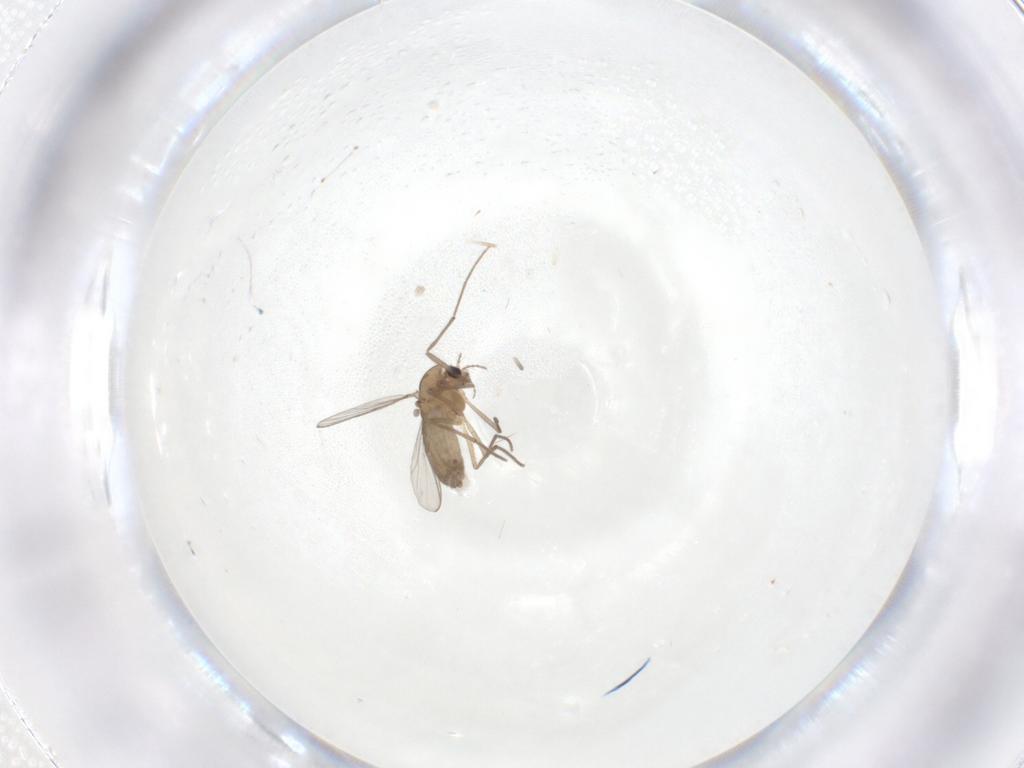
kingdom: Animalia
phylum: Arthropoda
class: Insecta
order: Diptera
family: Chironomidae
